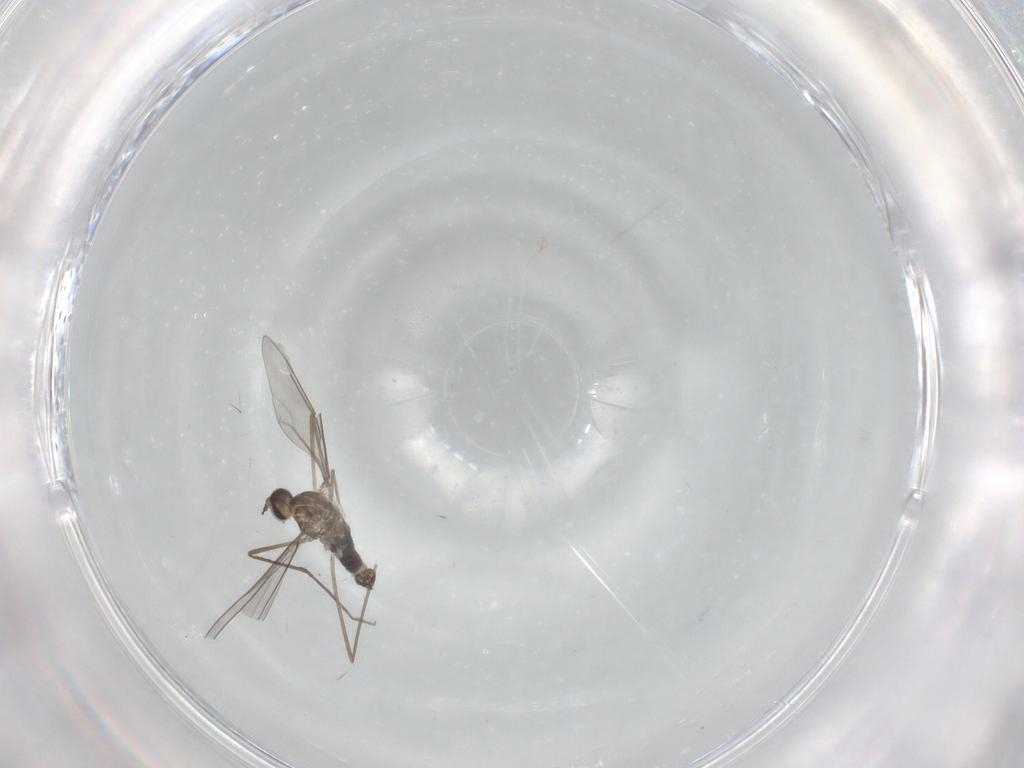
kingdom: Animalia
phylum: Arthropoda
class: Insecta
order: Diptera
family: Cecidomyiidae
